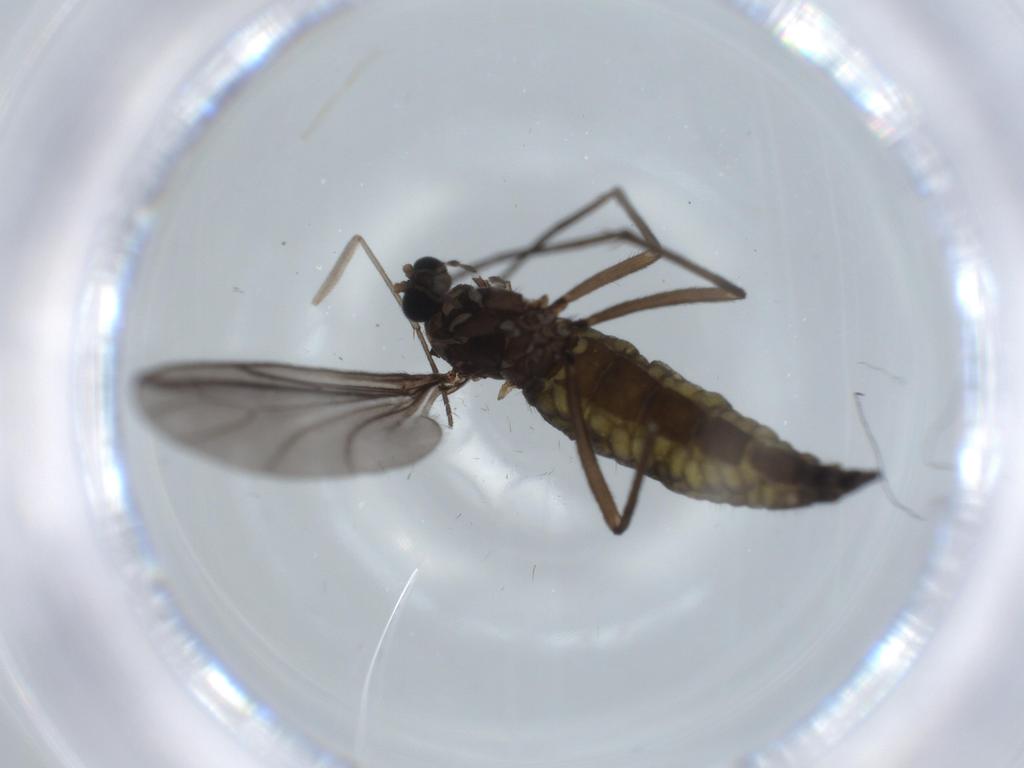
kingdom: Animalia
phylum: Arthropoda
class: Insecta
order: Diptera
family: Sciaridae
